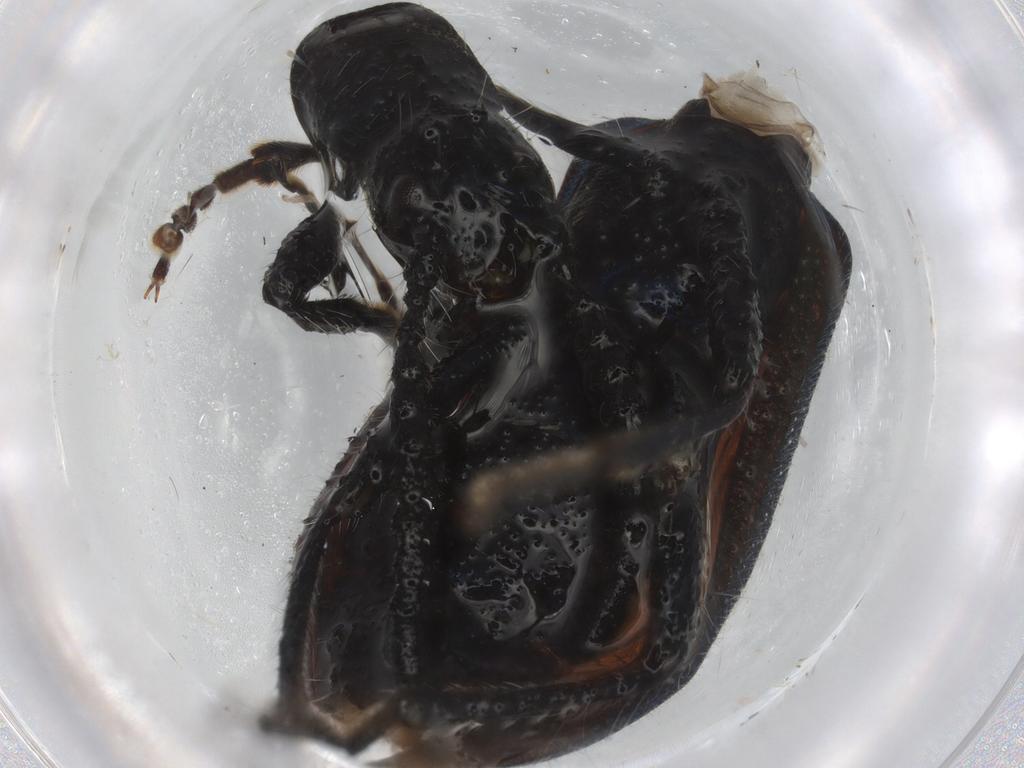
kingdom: Animalia
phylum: Arthropoda
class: Insecta
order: Coleoptera
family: Tenebrionidae
